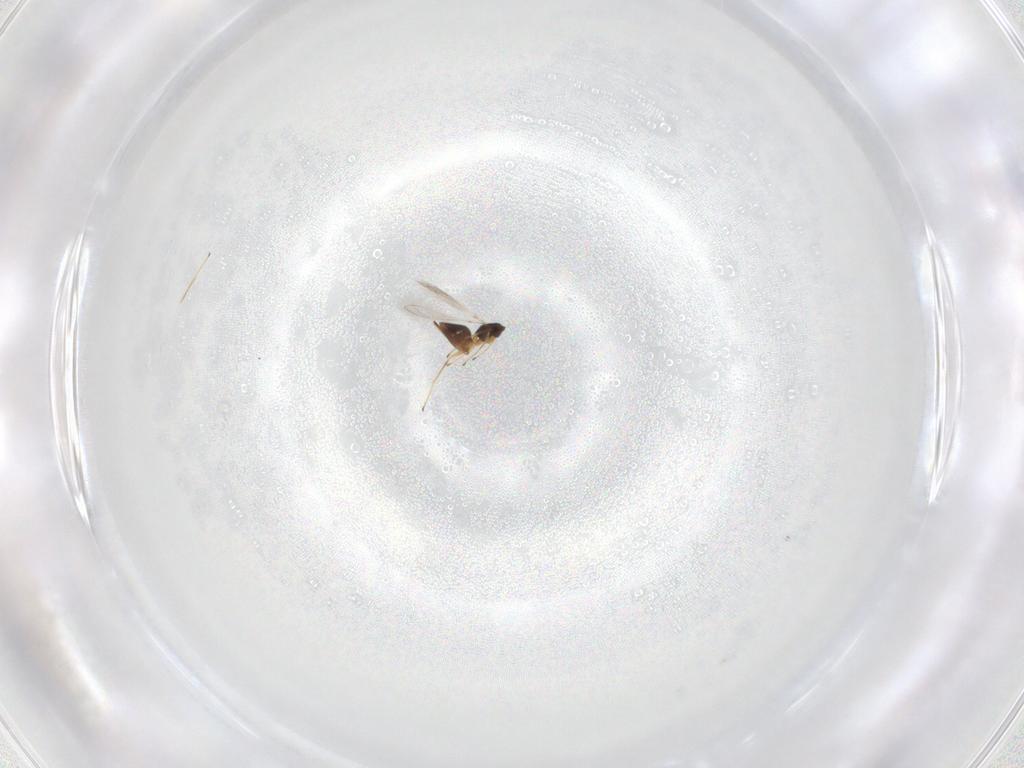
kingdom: Animalia
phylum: Arthropoda
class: Insecta
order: Hymenoptera
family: Mymaridae
